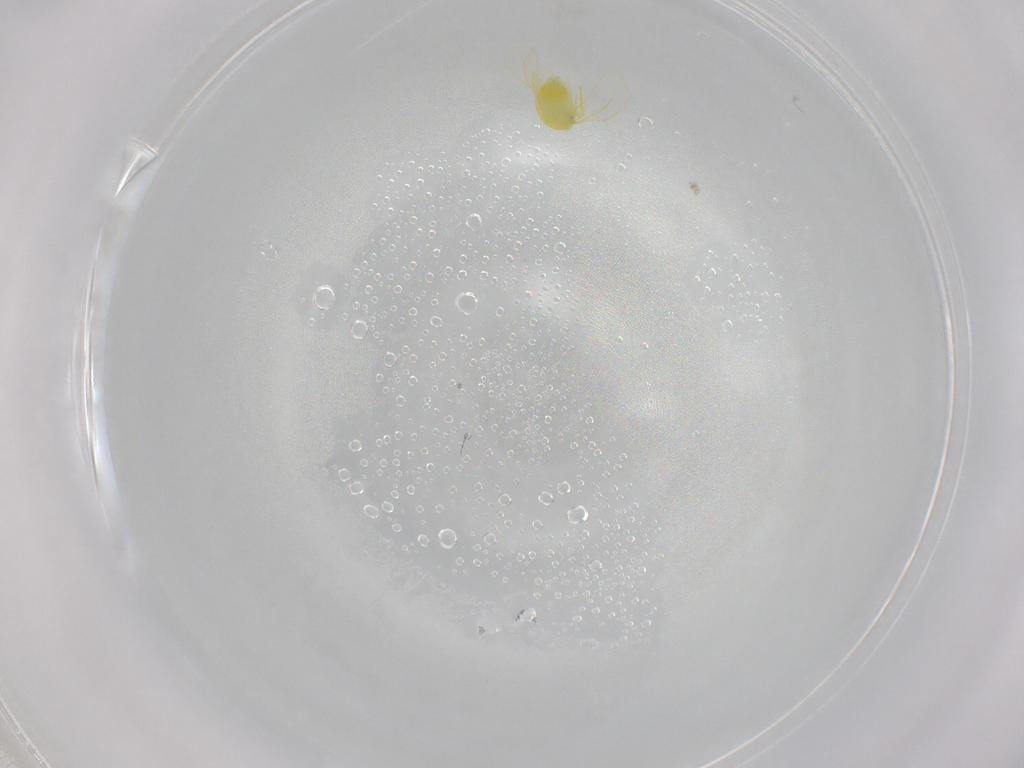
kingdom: Animalia
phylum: Arthropoda
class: Insecta
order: Hemiptera
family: Aleyrodidae
